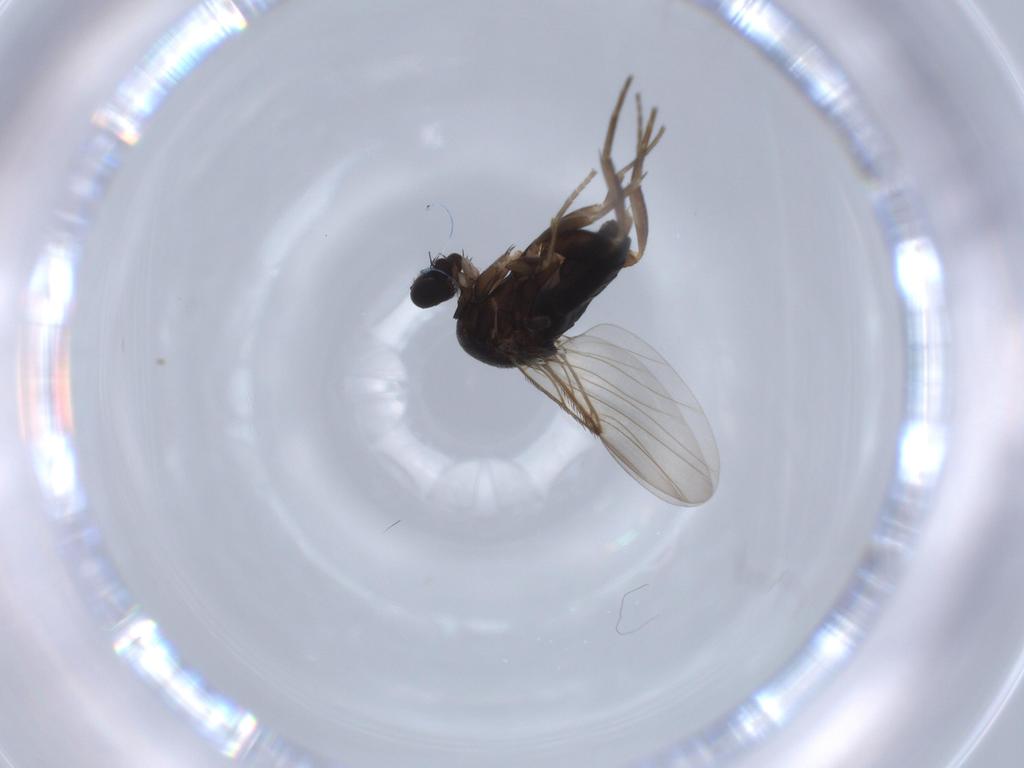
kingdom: Animalia
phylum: Arthropoda
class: Insecta
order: Diptera
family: Phoridae
